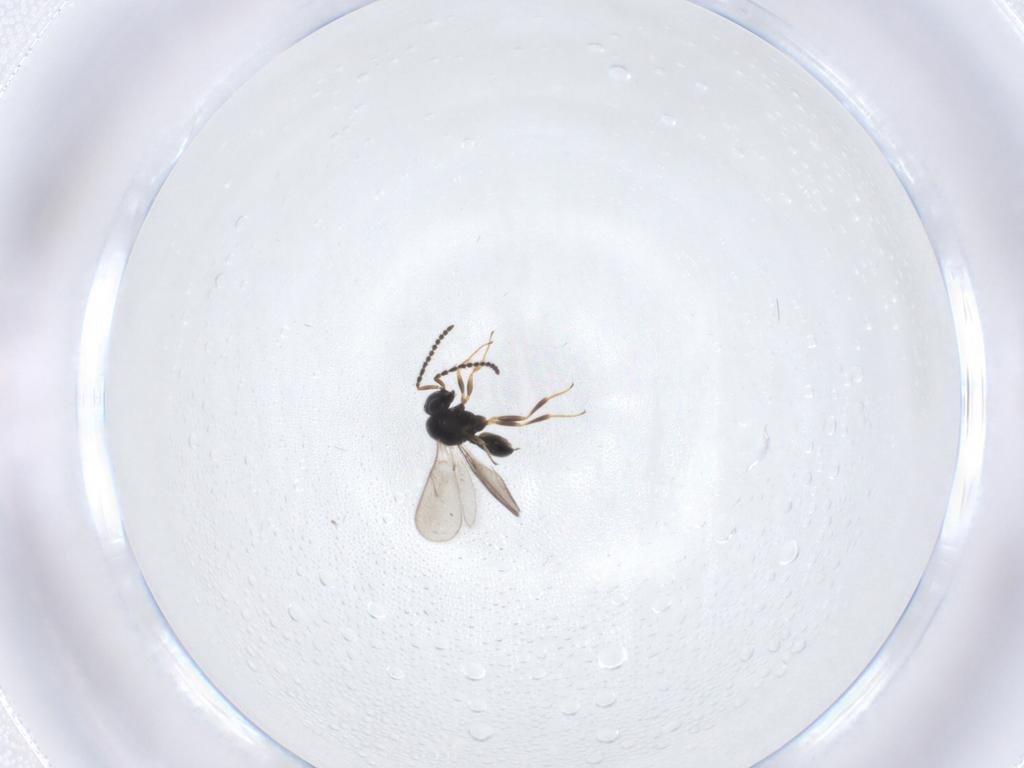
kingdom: Animalia
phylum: Arthropoda
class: Insecta
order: Hymenoptera
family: Scelionidae
